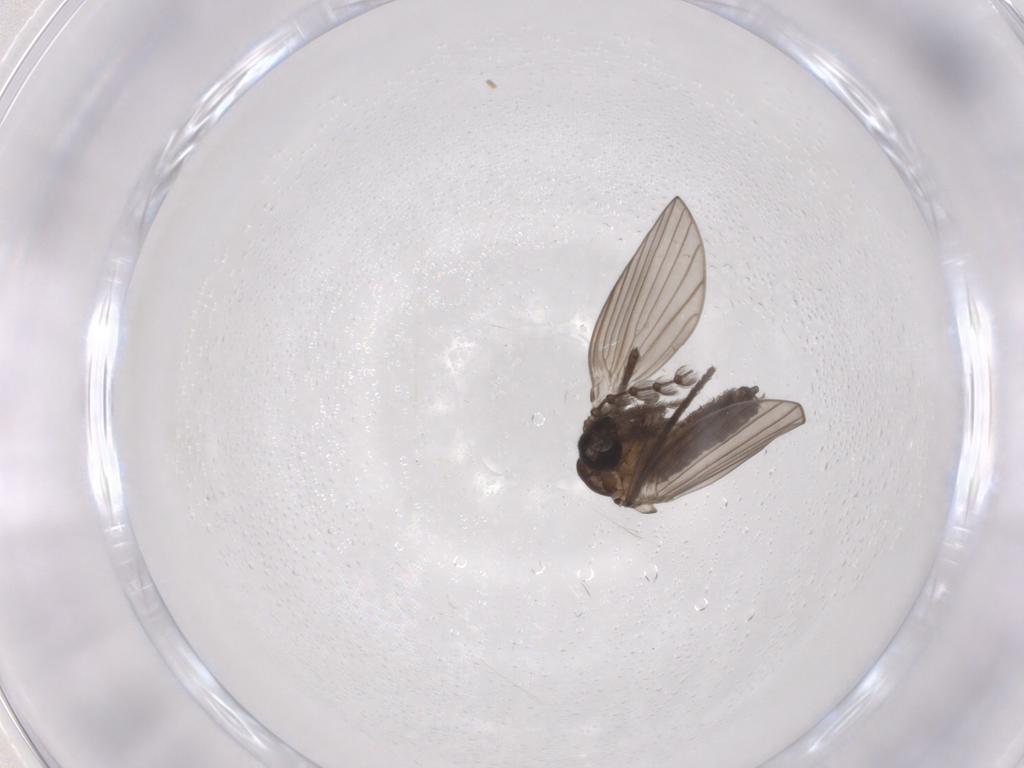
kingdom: Animalia
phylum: Arthropoda
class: Insecta
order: Diptera
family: Psychodidae
